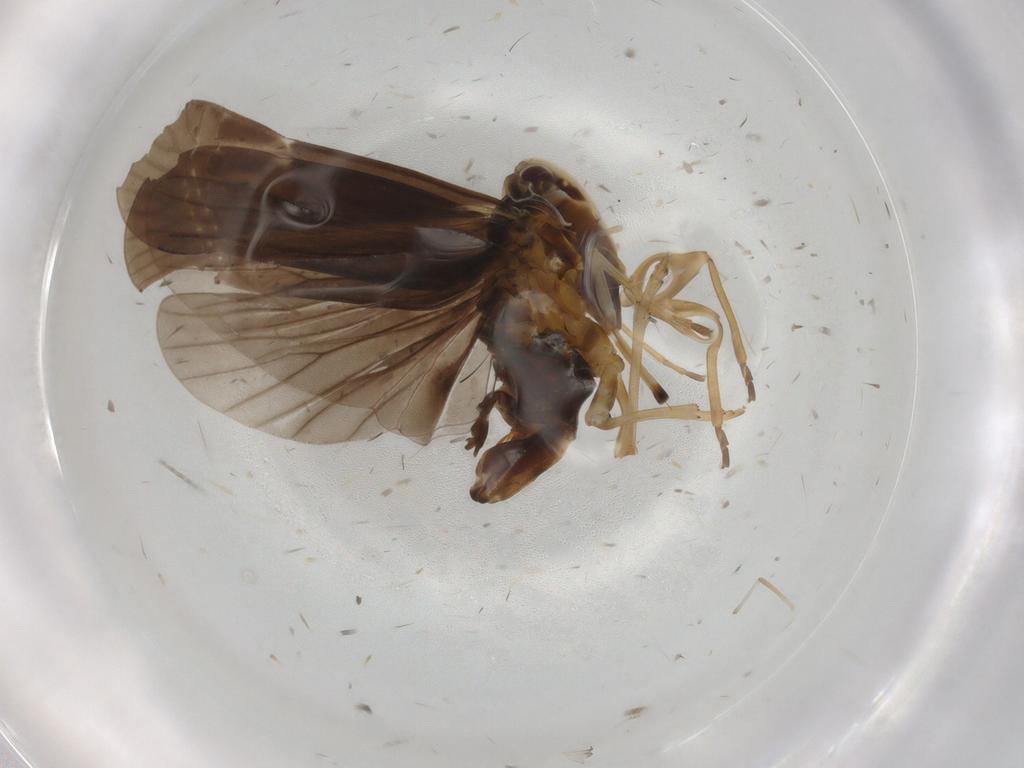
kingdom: Animalia
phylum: Arthropoda
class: Insecta
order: Hemiptera
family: Derbidae
